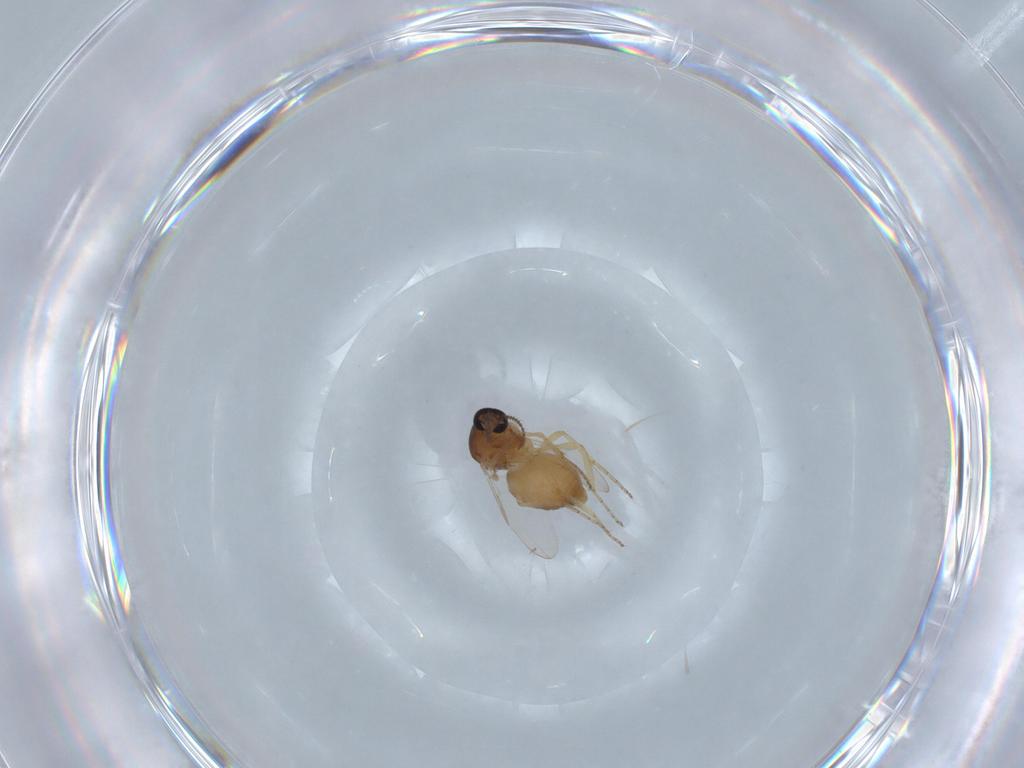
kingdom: Animalia
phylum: Arthropoda
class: Insecta
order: Diptera
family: Ceratopogonidae
